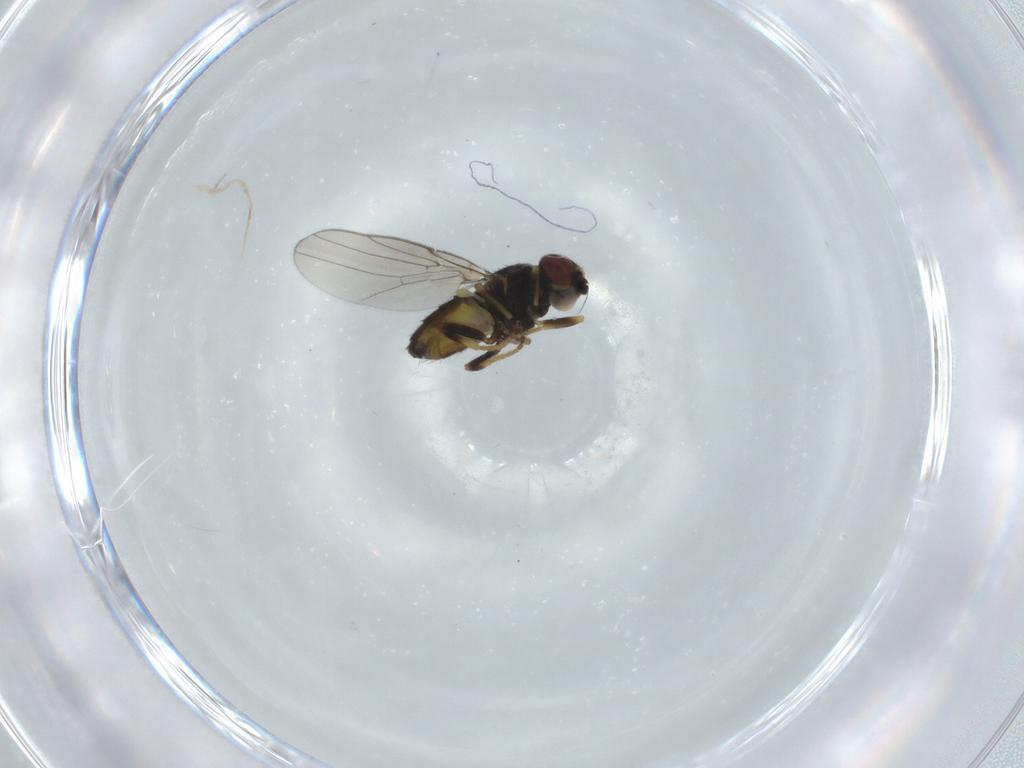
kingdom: Animalia
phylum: Arthropoda
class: Insecta
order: Diptera
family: Chloropidae
